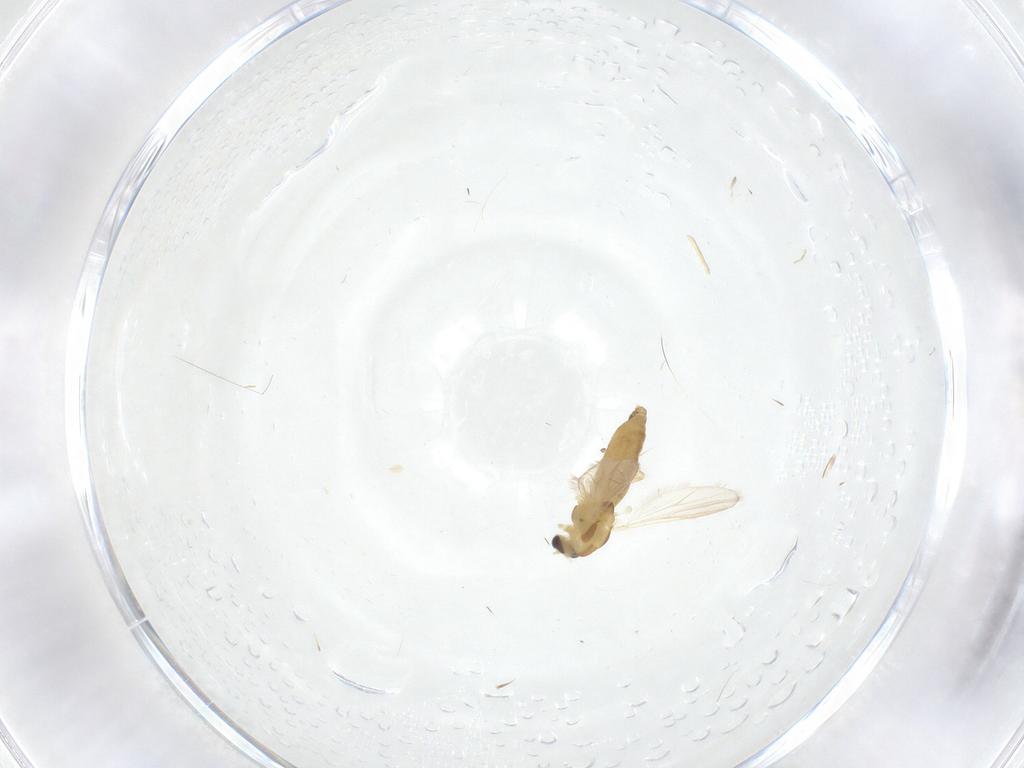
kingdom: Animalia
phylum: Arthropoda
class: Insecta
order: Diptera
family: Chironomidae
